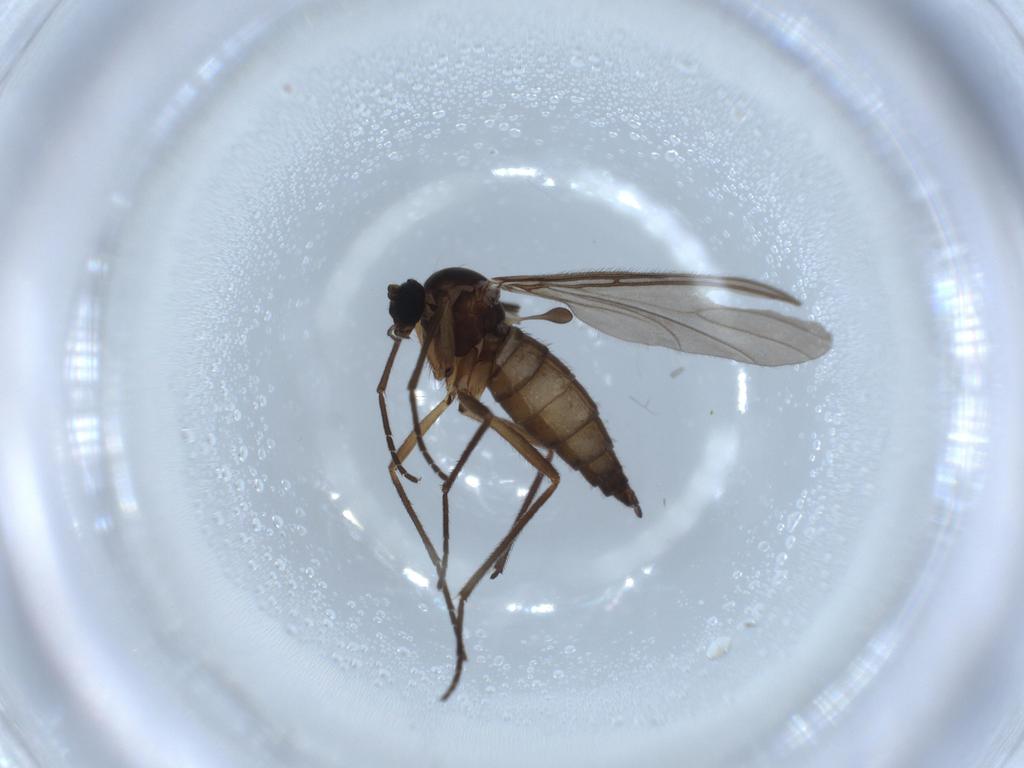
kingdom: Animalia
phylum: Arthropoda
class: Insecta
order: Diptera
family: Sciaridae
